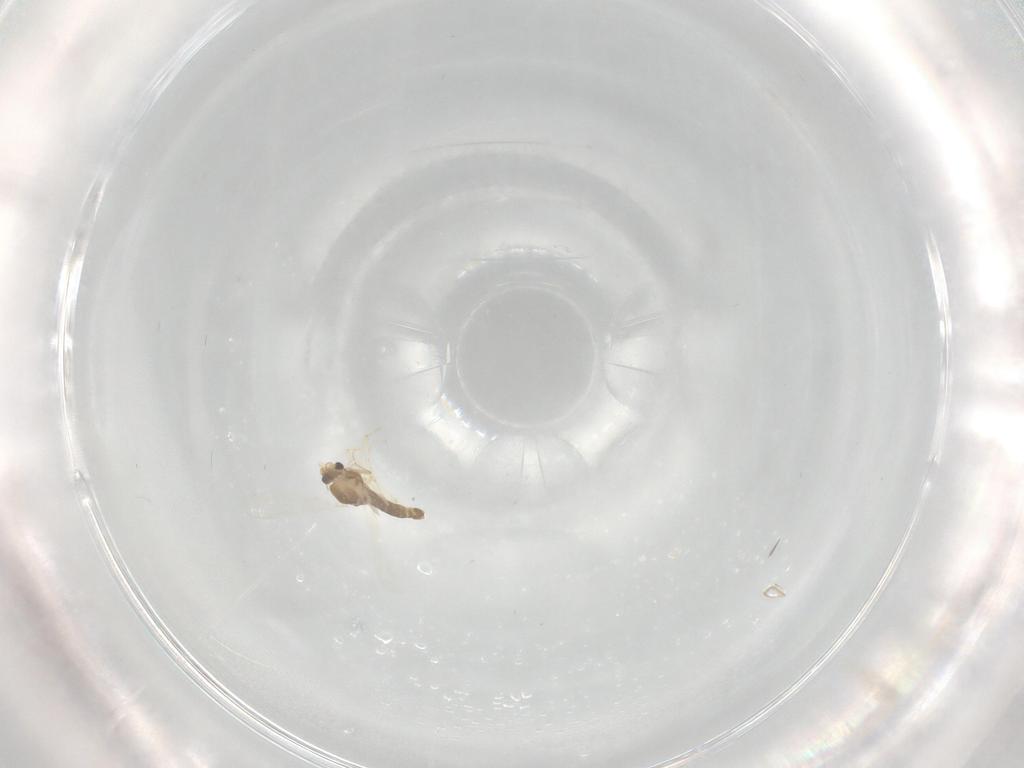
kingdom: Animalia
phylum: Arthropoda
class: Insecta
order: Diptera
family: Chironomidae
